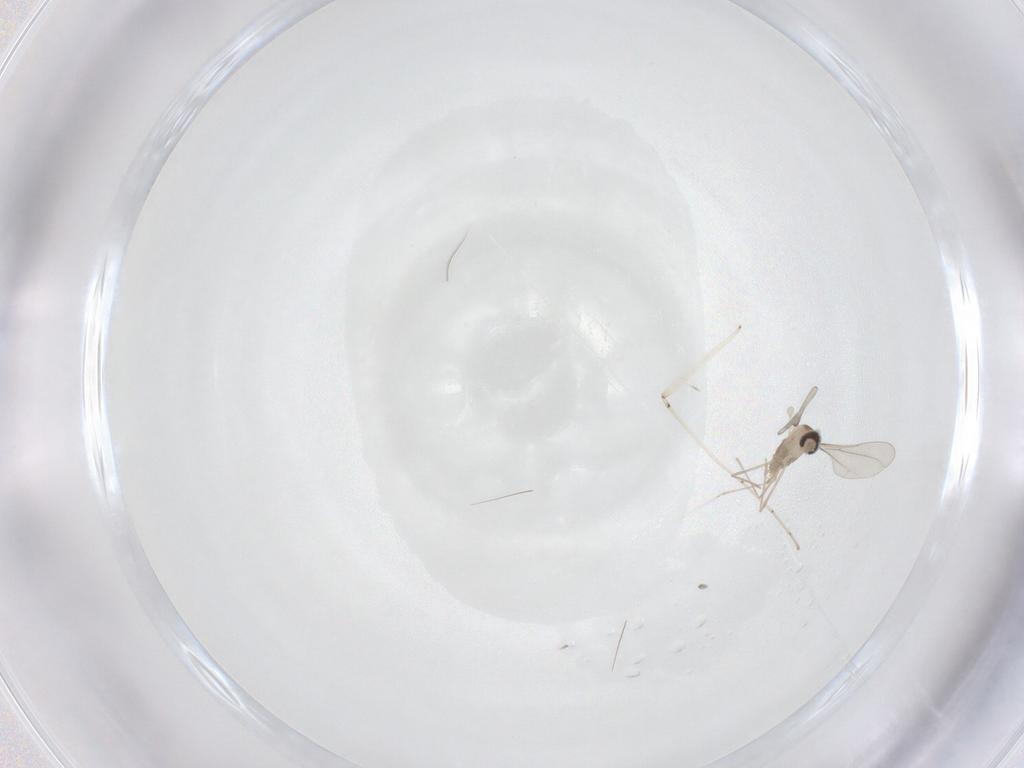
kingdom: Animalia
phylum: Arthropoda
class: Insecta
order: Diptera
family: Cecidomyiidae
